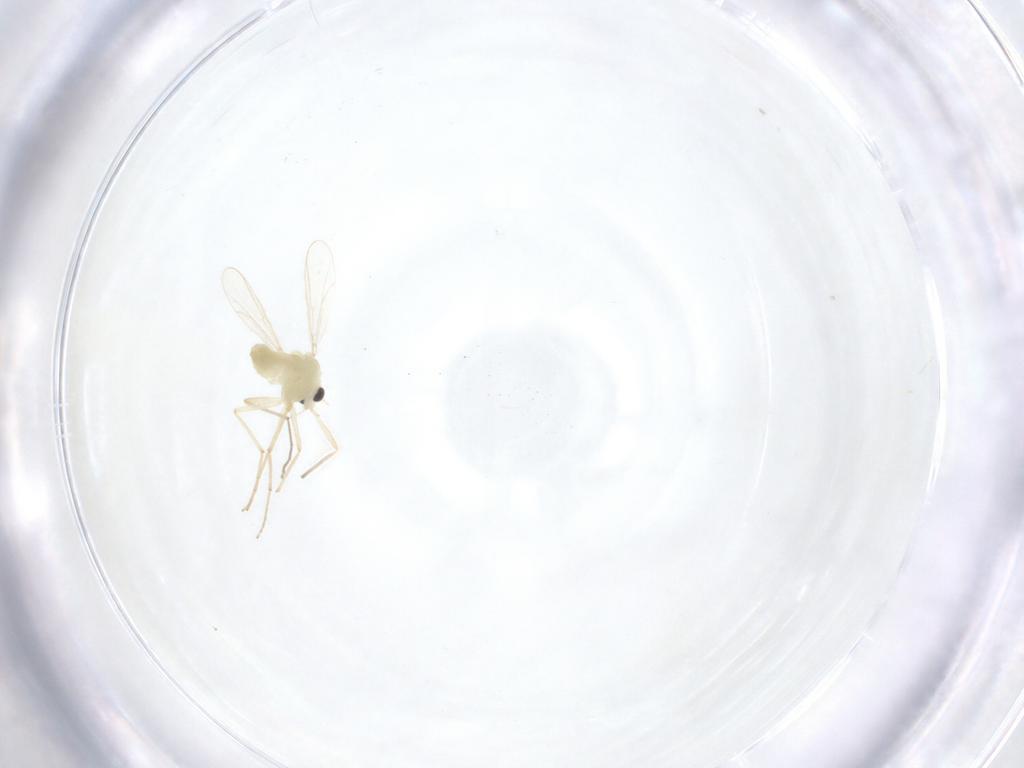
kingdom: Animalia
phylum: Arthropoda
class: Insecta
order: Diptera
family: Chironomidae
